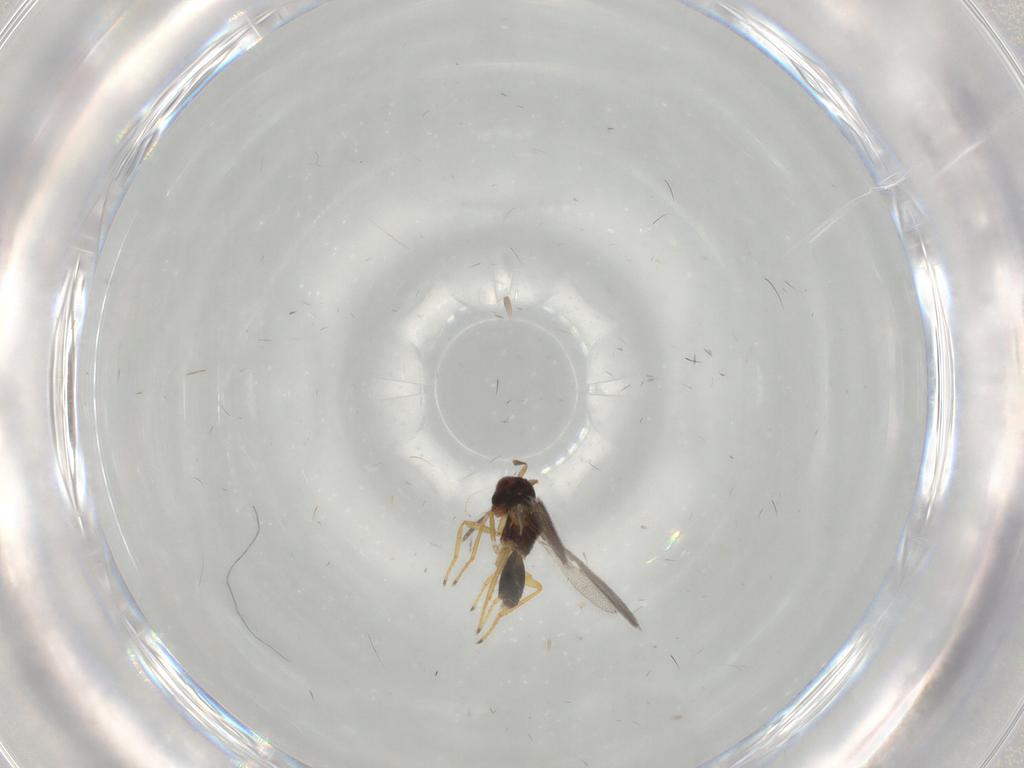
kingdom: Animalia
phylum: Arthropoda
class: Insecta
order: Hymenoptera
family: Eulophidae
